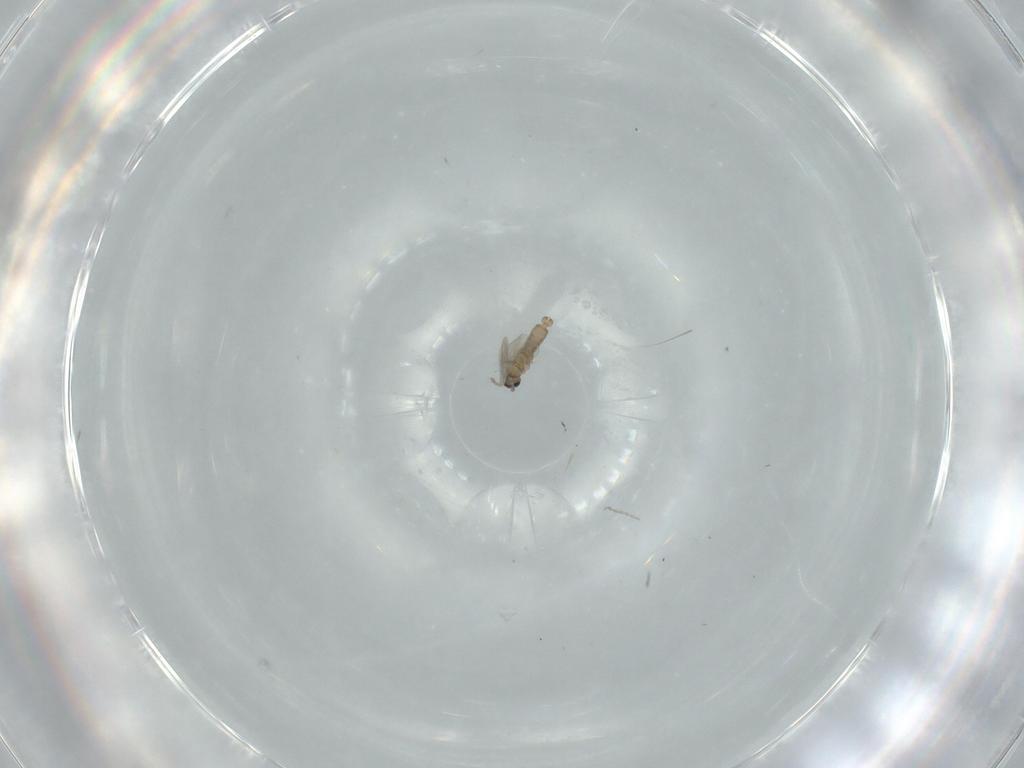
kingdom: Animalia
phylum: Arthropoda
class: Insecta
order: Diptera
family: Cecidomyiidae
